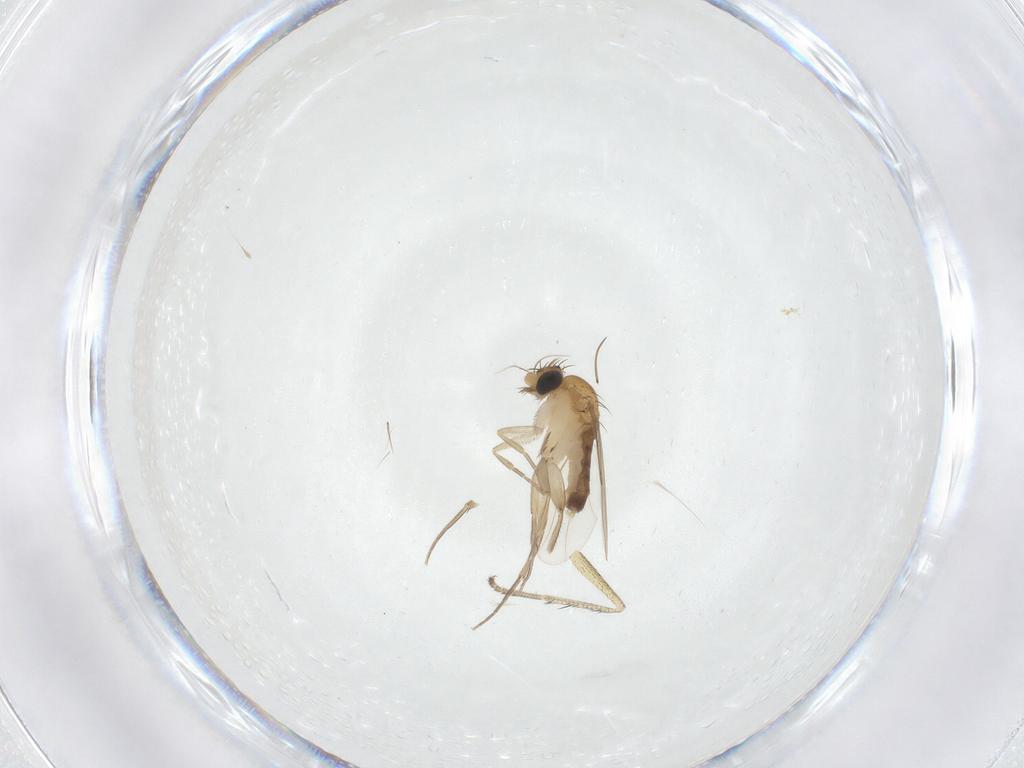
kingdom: Animalia
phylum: Arthropoda
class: Insecta
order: Diptera
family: Dolichopodidae
